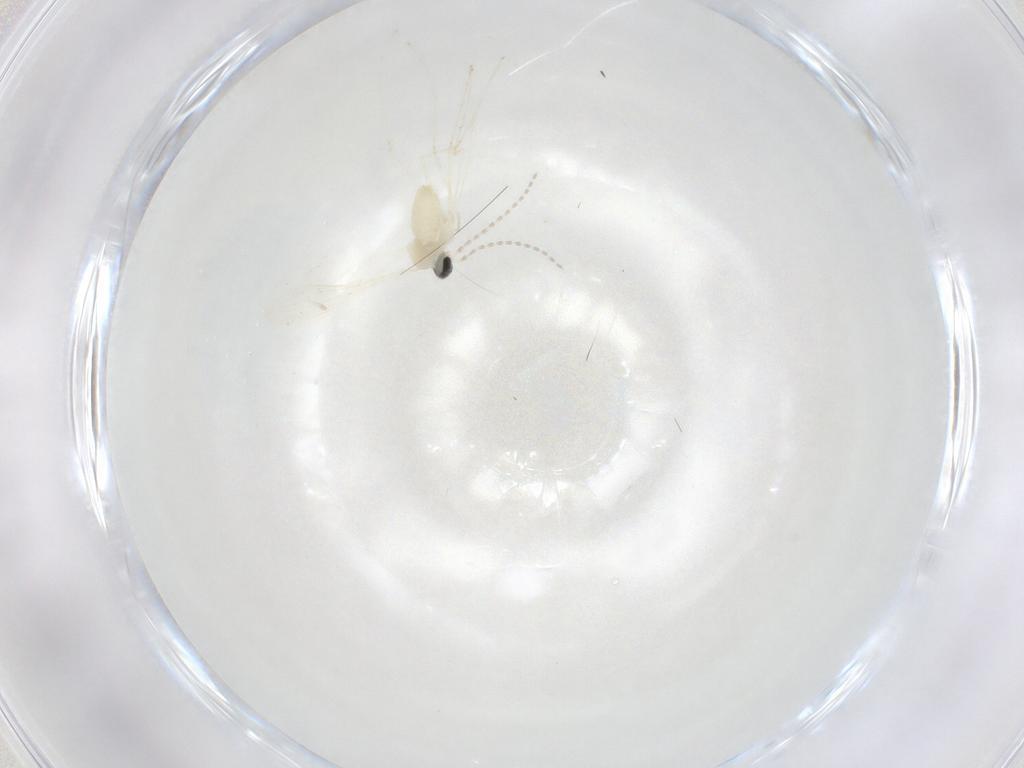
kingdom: Animalia
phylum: Arthropoda
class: Insecta
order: Diptera
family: Cecidomyiidae
